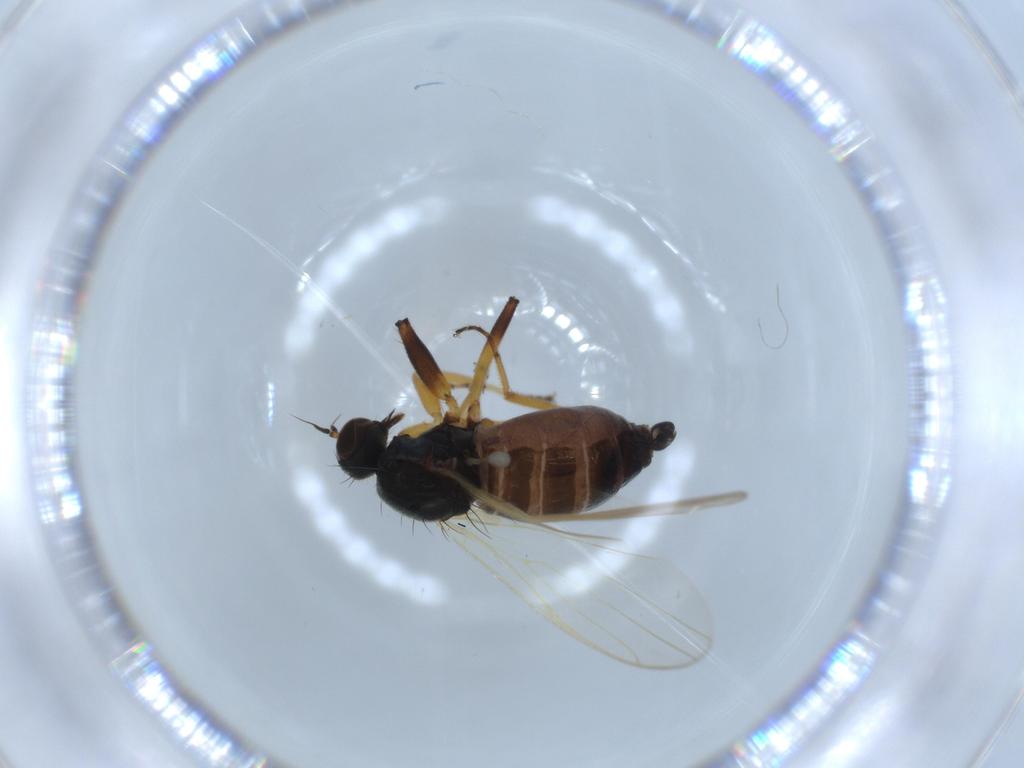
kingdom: Animalia
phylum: Arthropoda
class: Insecta
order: Diptera
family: Hybotidae
